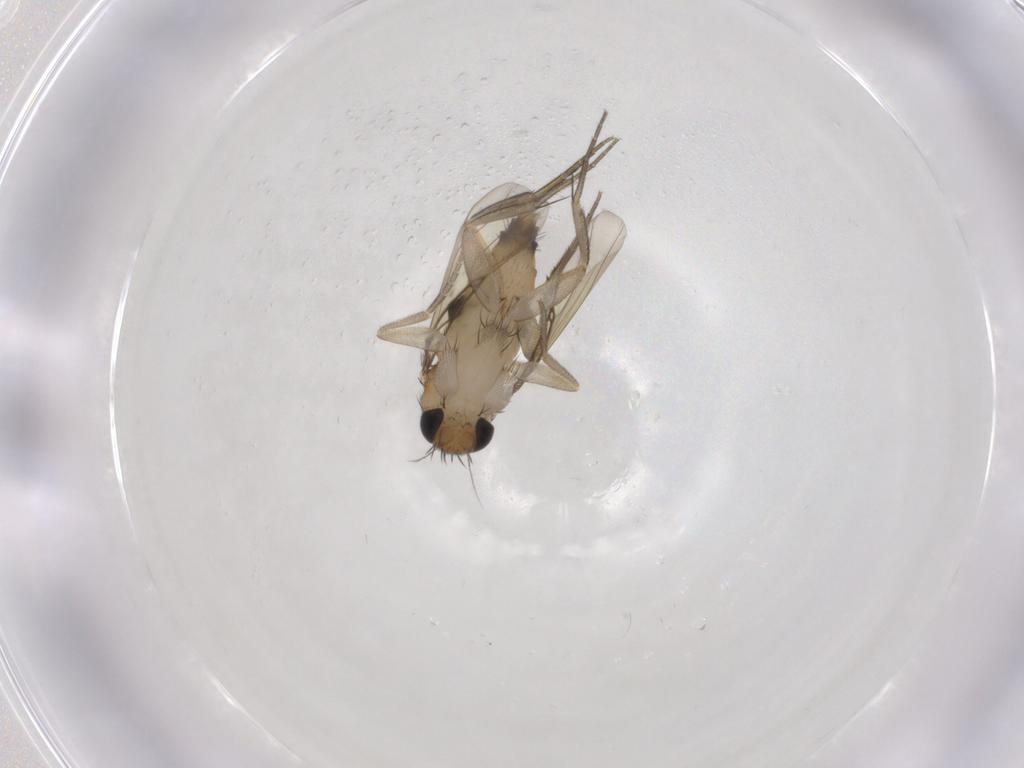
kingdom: Animalia
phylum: Arthropoda
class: Insecta
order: Diptera
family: Phoridae
